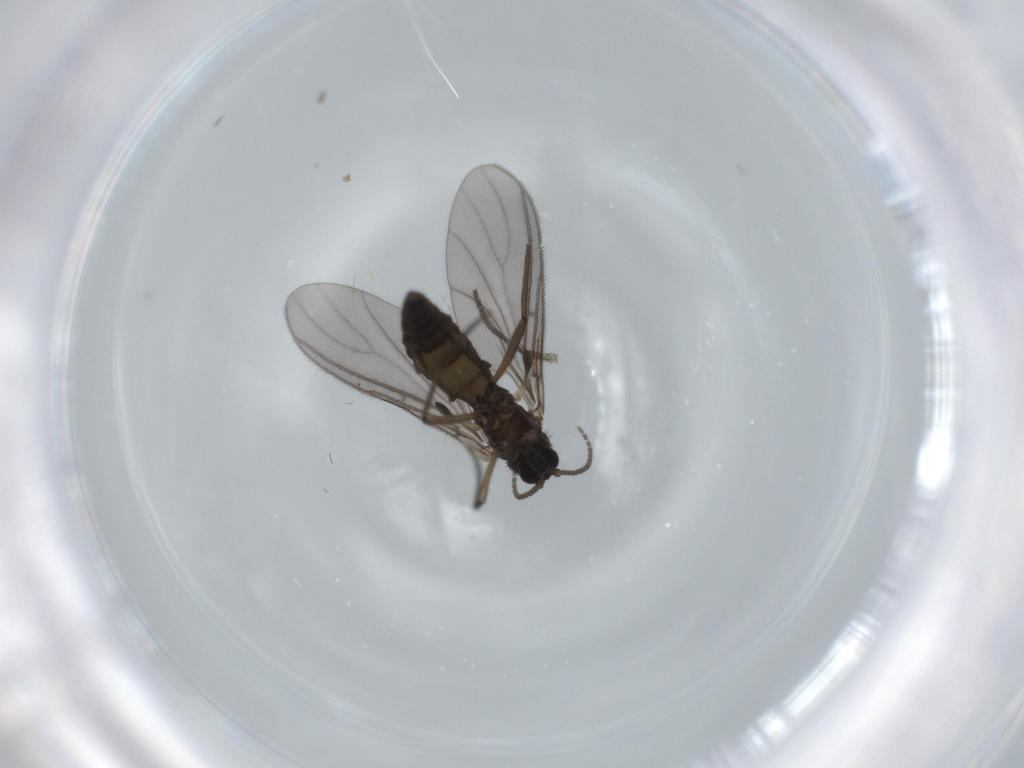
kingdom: Animalia
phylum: Arthropoda
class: Insecta
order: Diptera
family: Sciaridae
